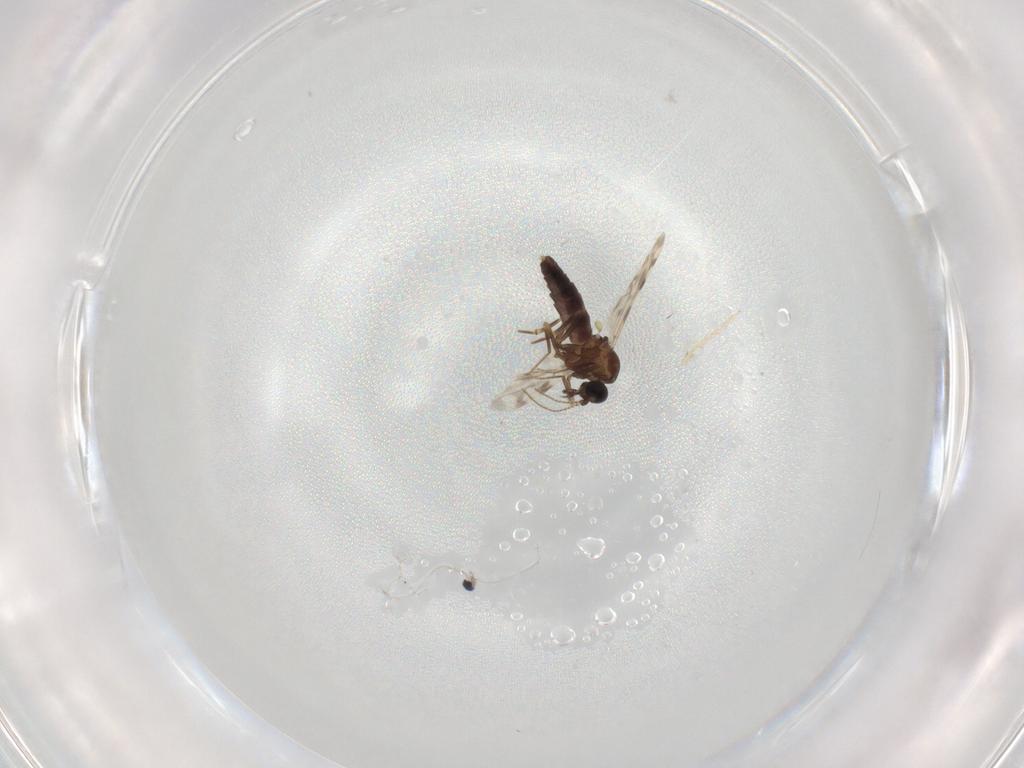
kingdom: Animalia
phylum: Arthropoda
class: Insecta
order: Diptera
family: Ceratopogonidae
